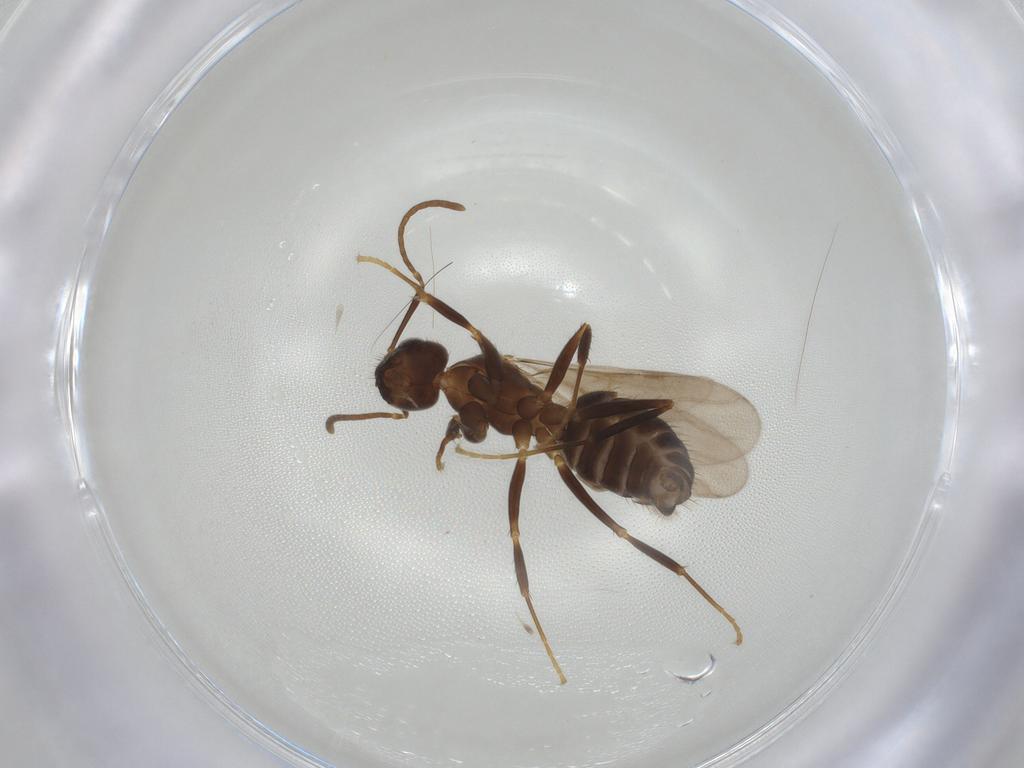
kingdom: Animalia
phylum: Arthropoda
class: Insecta
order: Hymenoptera
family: Formicidae
